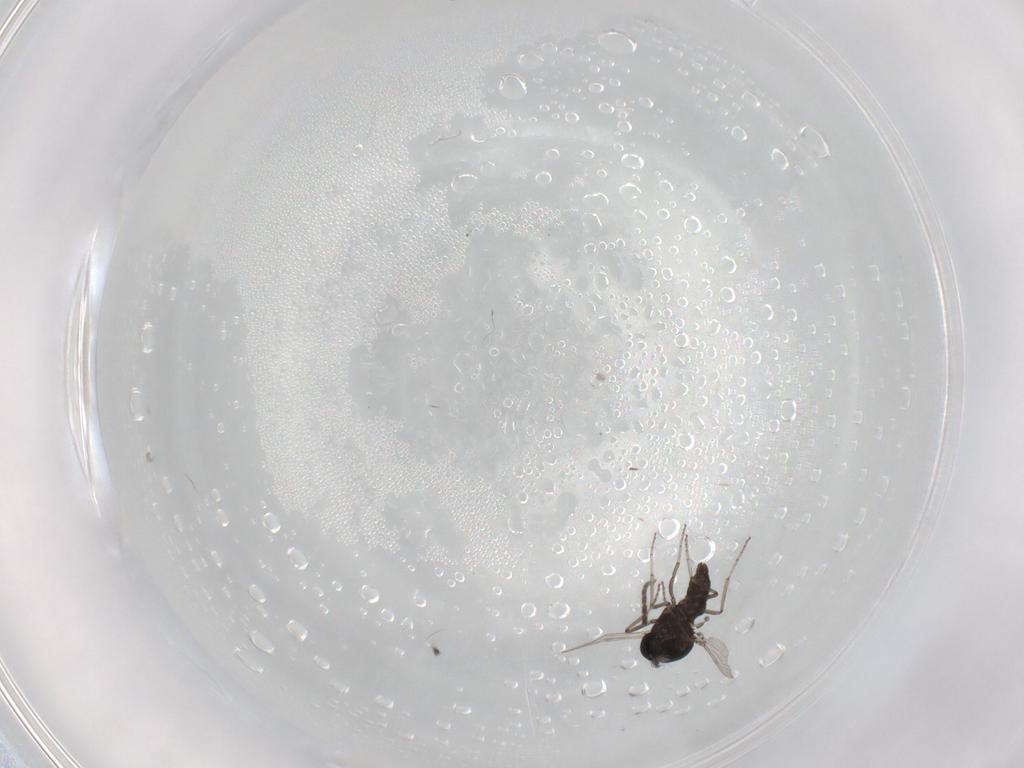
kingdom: Animalia
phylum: Arthropoda
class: Insecta
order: Diptera
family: Ceratopogonidae
